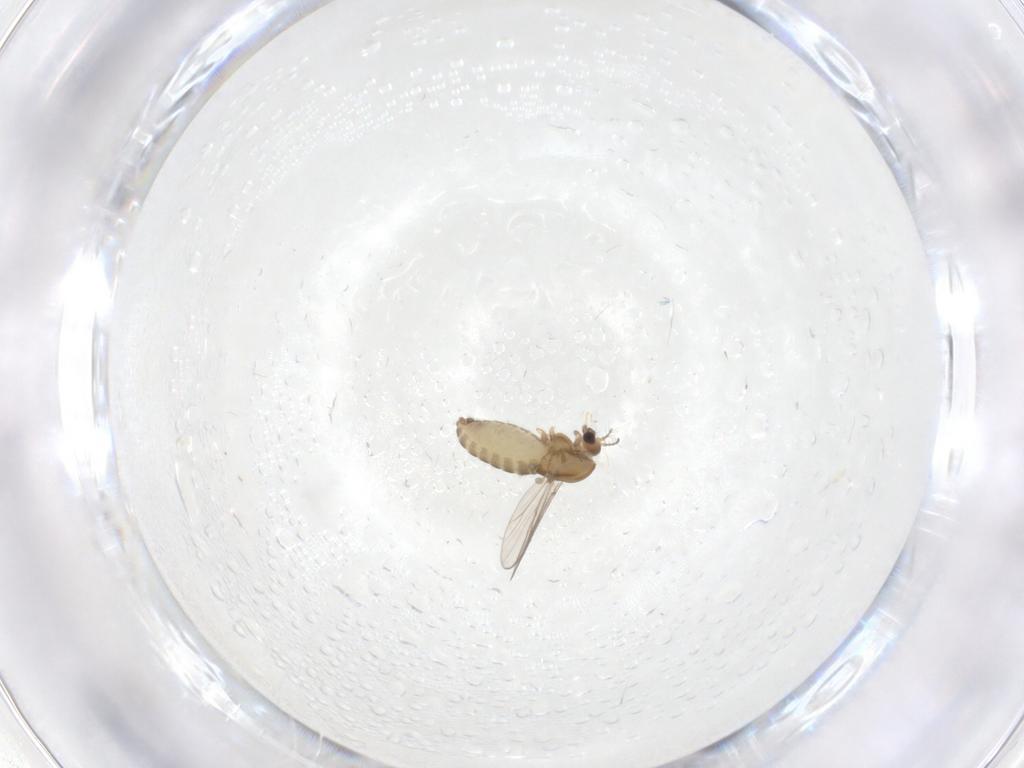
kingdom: Animalia
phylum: Arthropoda
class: Insecta
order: Diptera
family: Chironomidae
